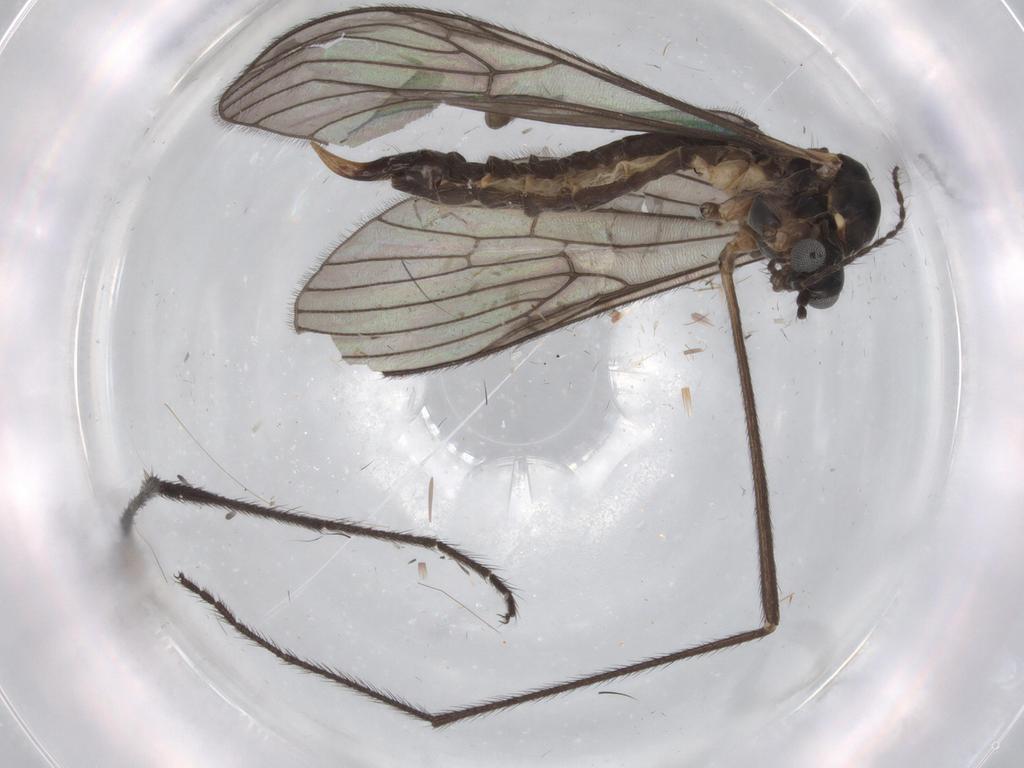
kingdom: Animalia
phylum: Arthropoda
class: Insecta
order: Diptera
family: Limoniidae
